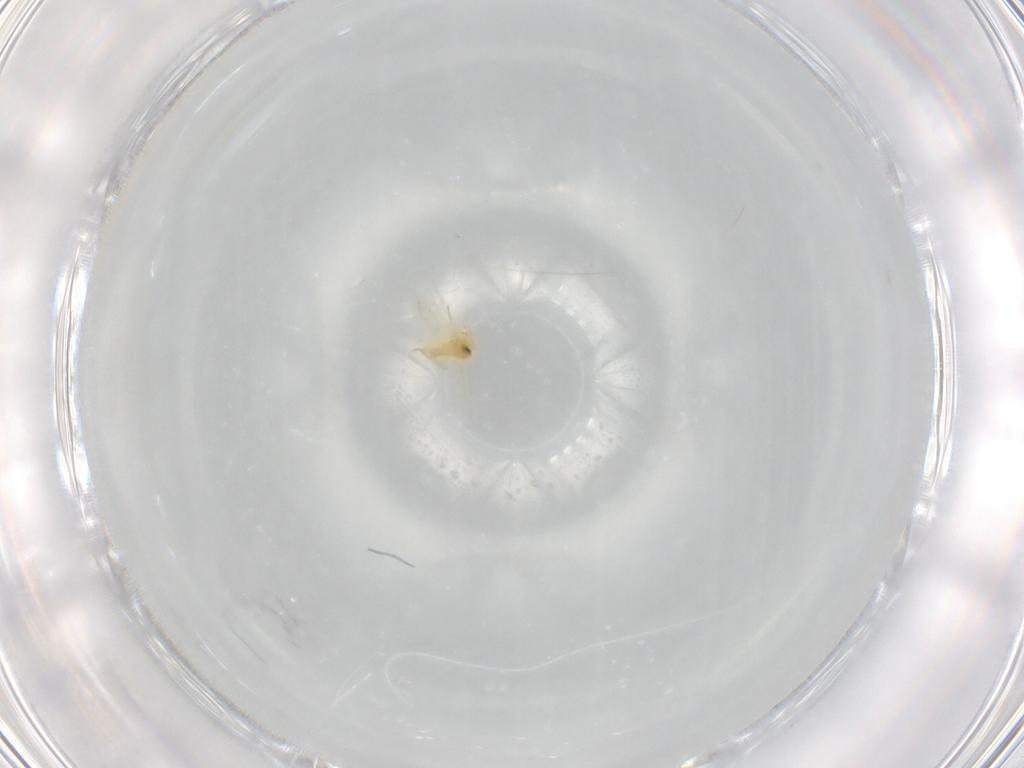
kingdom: Animalia
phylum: Arthropoda
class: Insecta
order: Hemiptera
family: Aleyrodidae
